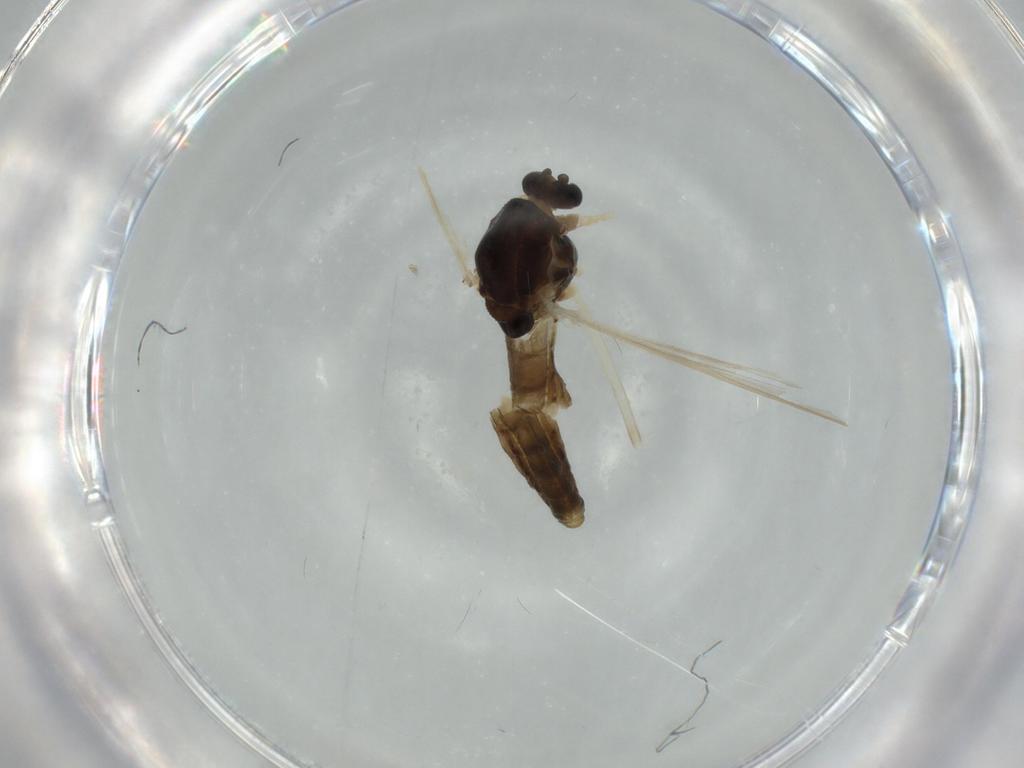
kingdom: Animalia
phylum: Arthropoda
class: Insecta
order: Diptera
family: Chironomidae
